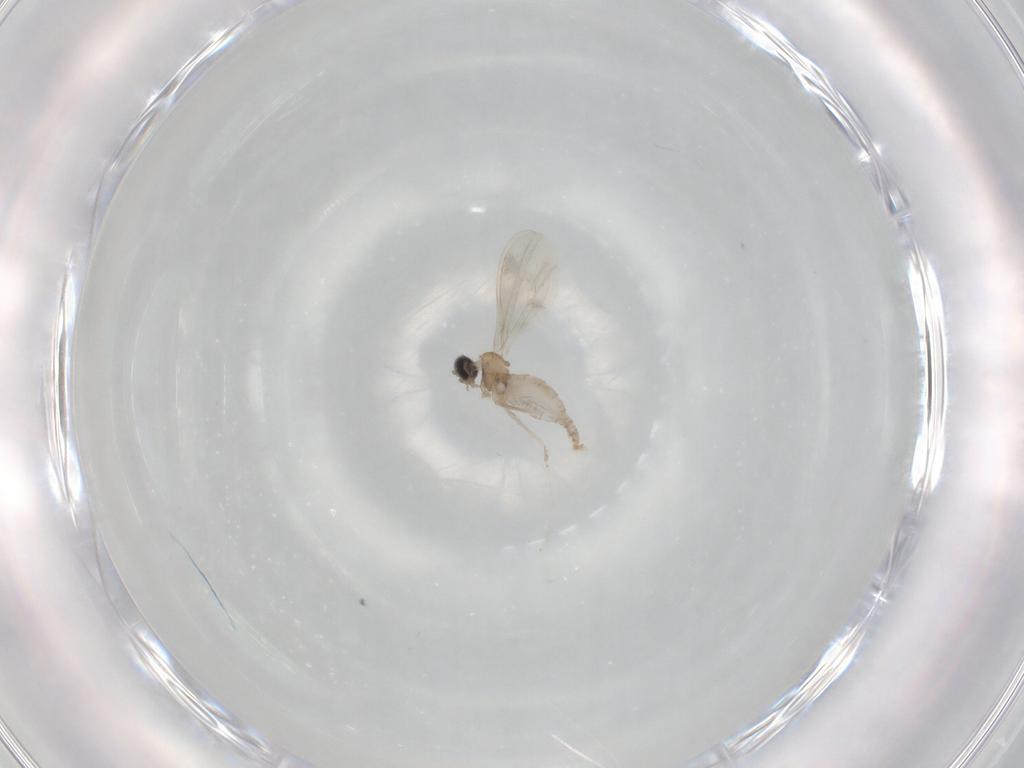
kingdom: Animalia
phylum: Arthropoda
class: Insecta
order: Diptera
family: Cecidomyiidae
